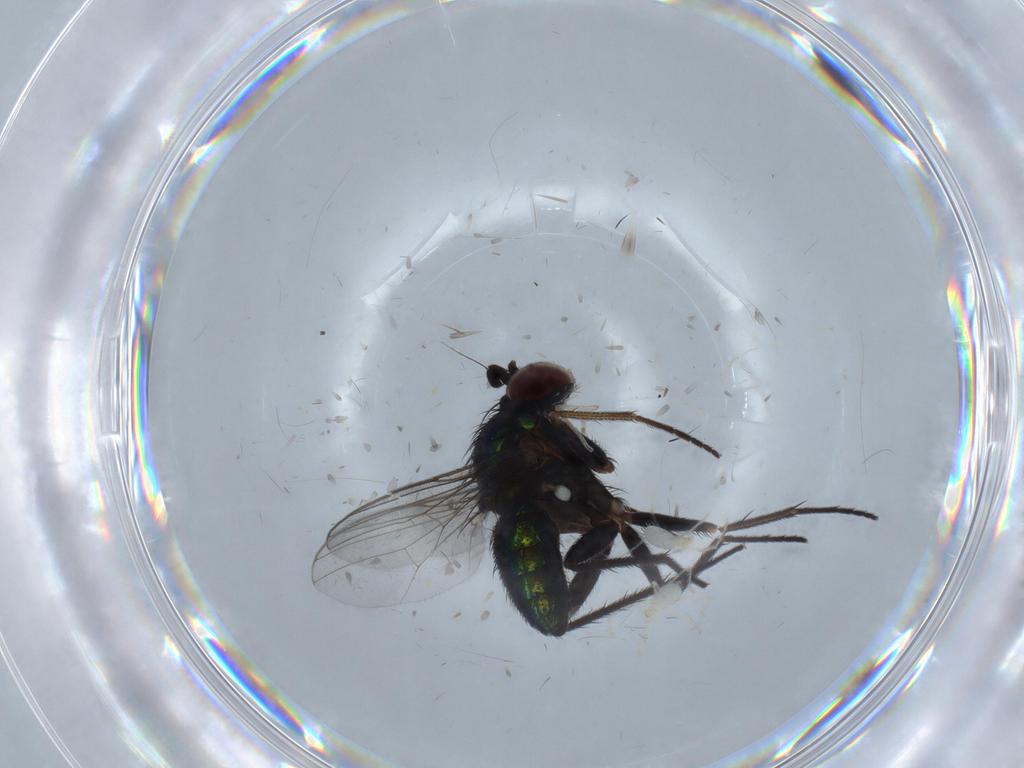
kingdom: Animalia
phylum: Arthropoda
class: Insecta
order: Diptera
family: Dolichopodidae
